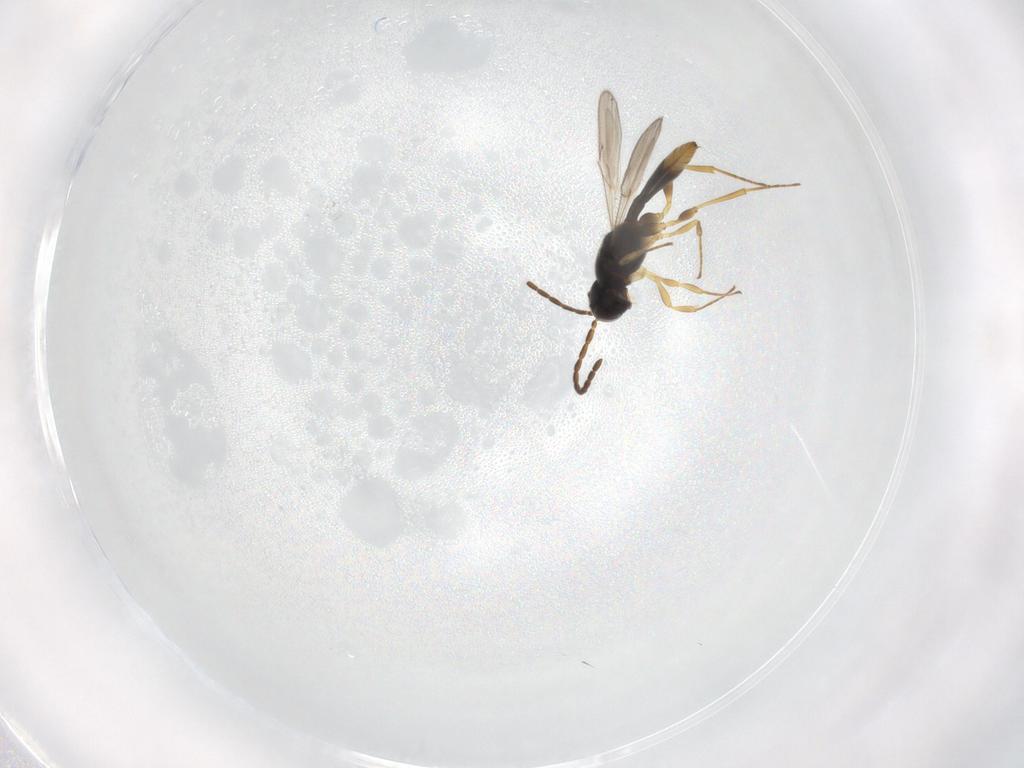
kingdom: Animalia
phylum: Arthropoda
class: Insecta
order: Hymenoptera
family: Scelionidae
